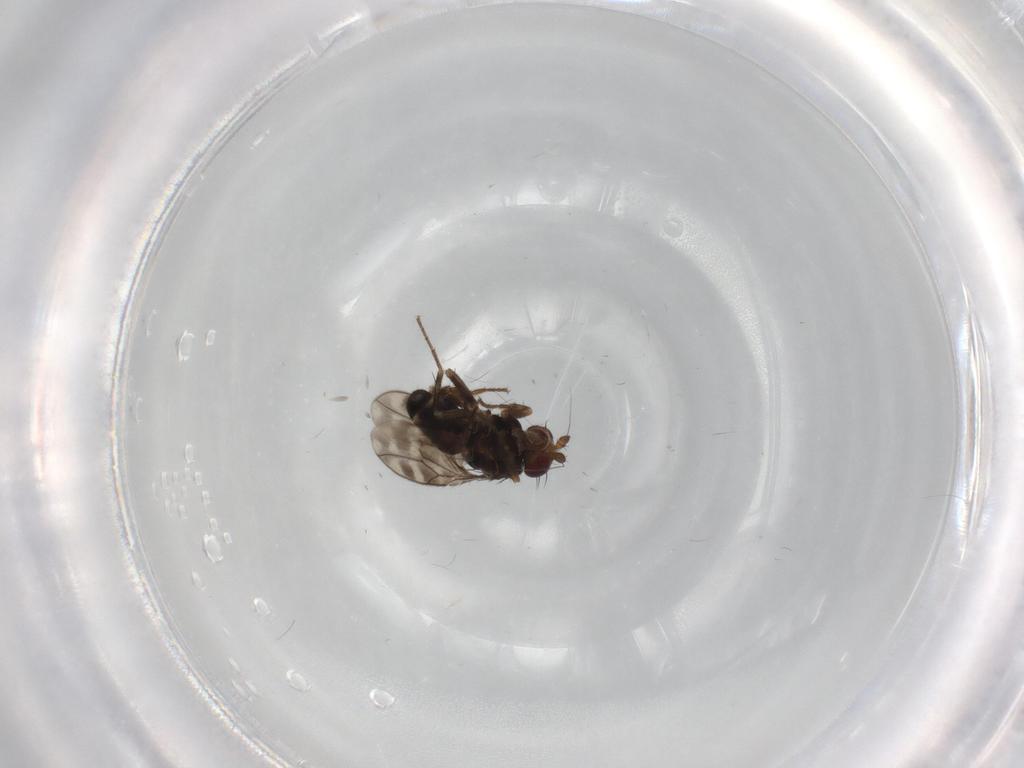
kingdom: Animalia
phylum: Arthropoda
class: Insecta
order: Diptera
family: Sphaeroceridae
